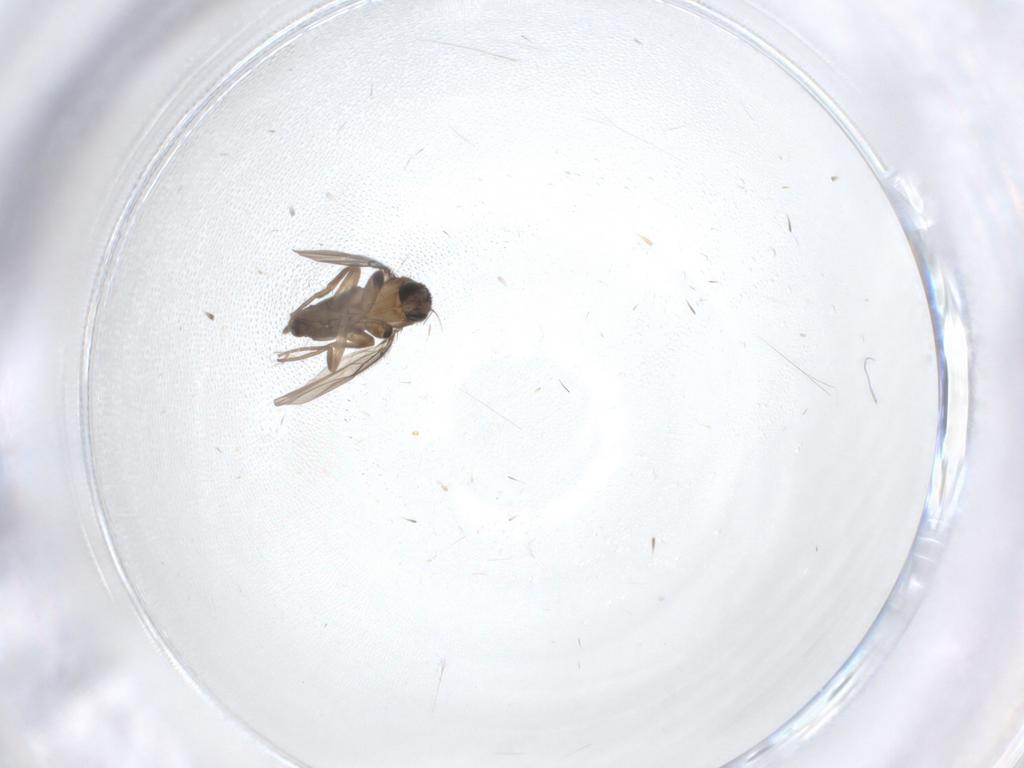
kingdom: Animalia
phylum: Arthropoda
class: Insecta
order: Diptera
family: Phoridae
